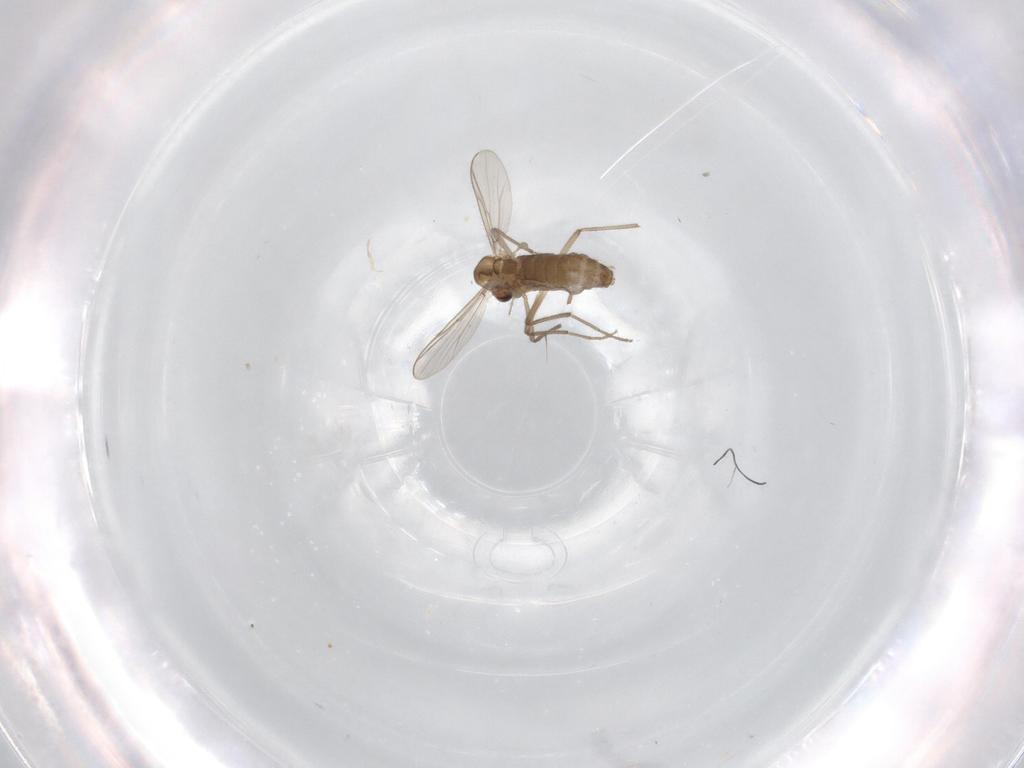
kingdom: Animalia
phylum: Arthropoda
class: Insecta
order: Diptera
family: Chironomidae
